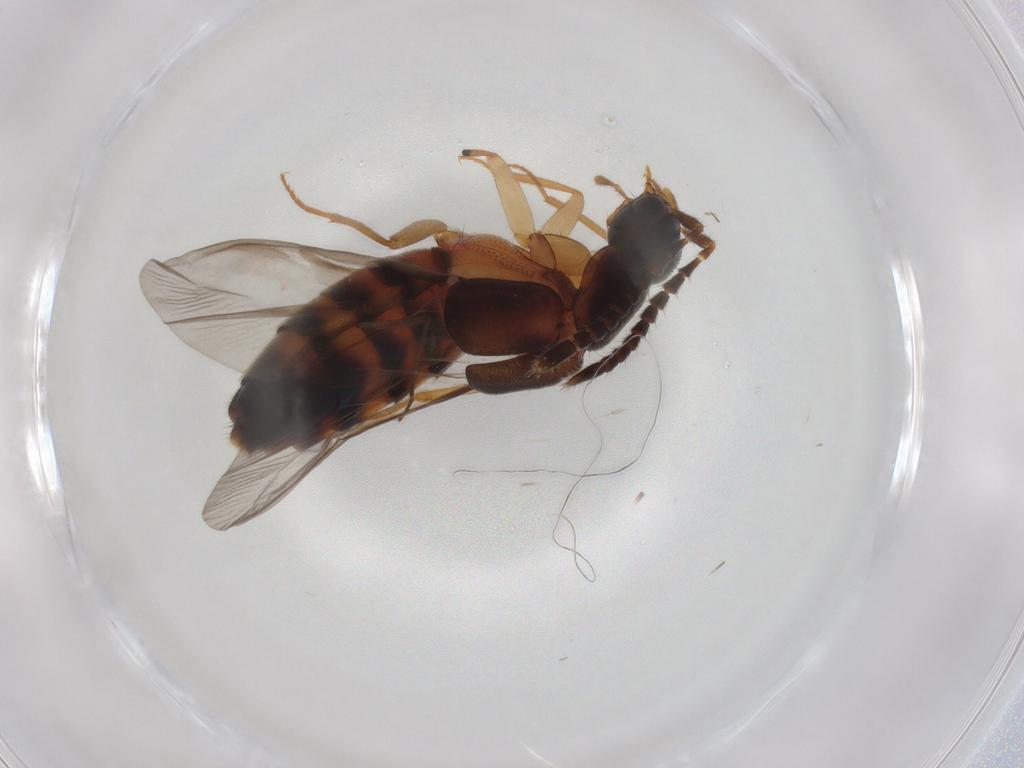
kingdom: Animalia
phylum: Arthropoda
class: Insecta
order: Coleoptera
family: Staphylinidae
